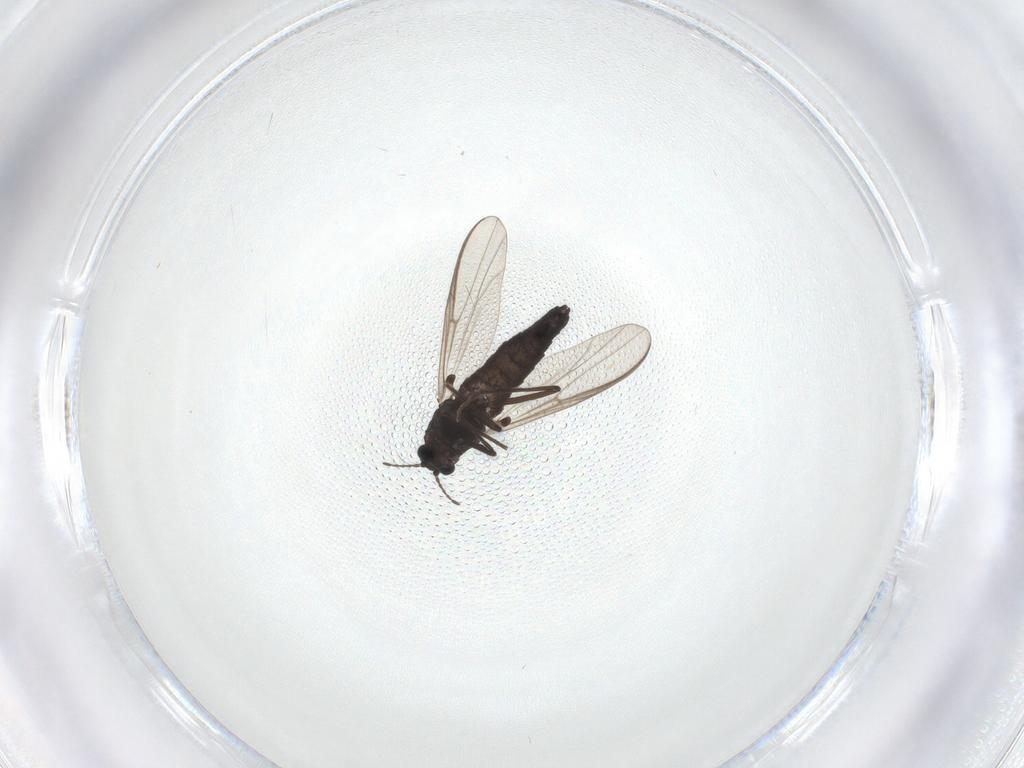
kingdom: Animalia
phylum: Arthropoda
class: Insecta
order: Diptera
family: Chironomidae
